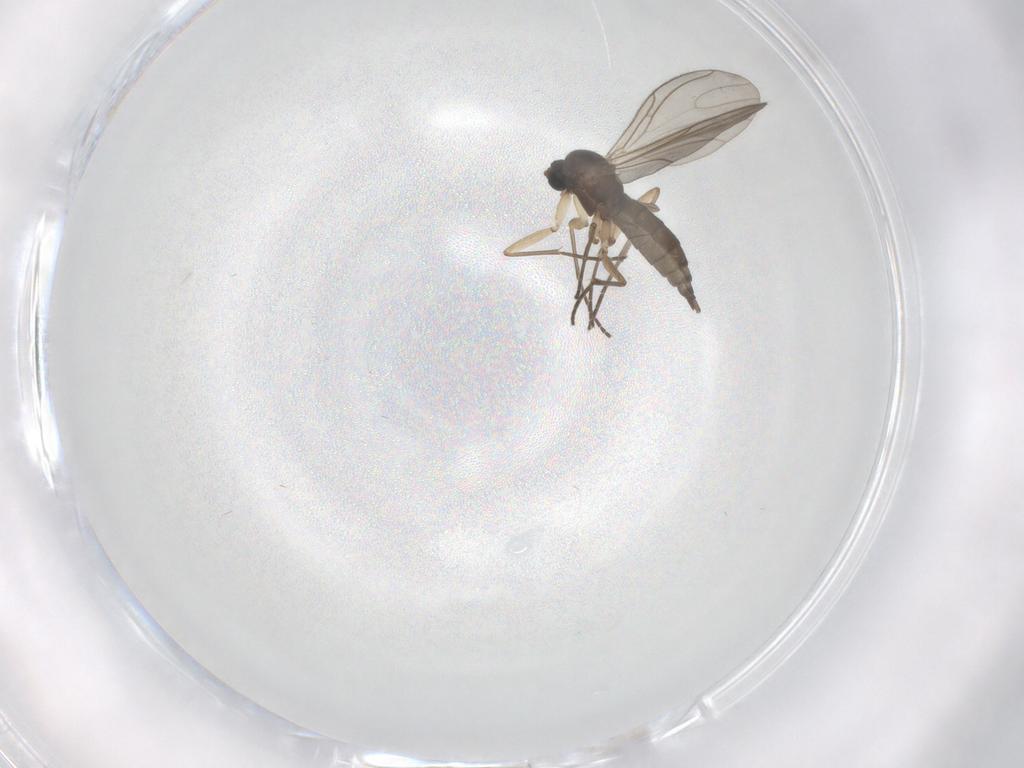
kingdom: Animalia
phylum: Arthropoda
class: Insecta
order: Diptera
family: Sciaridae
